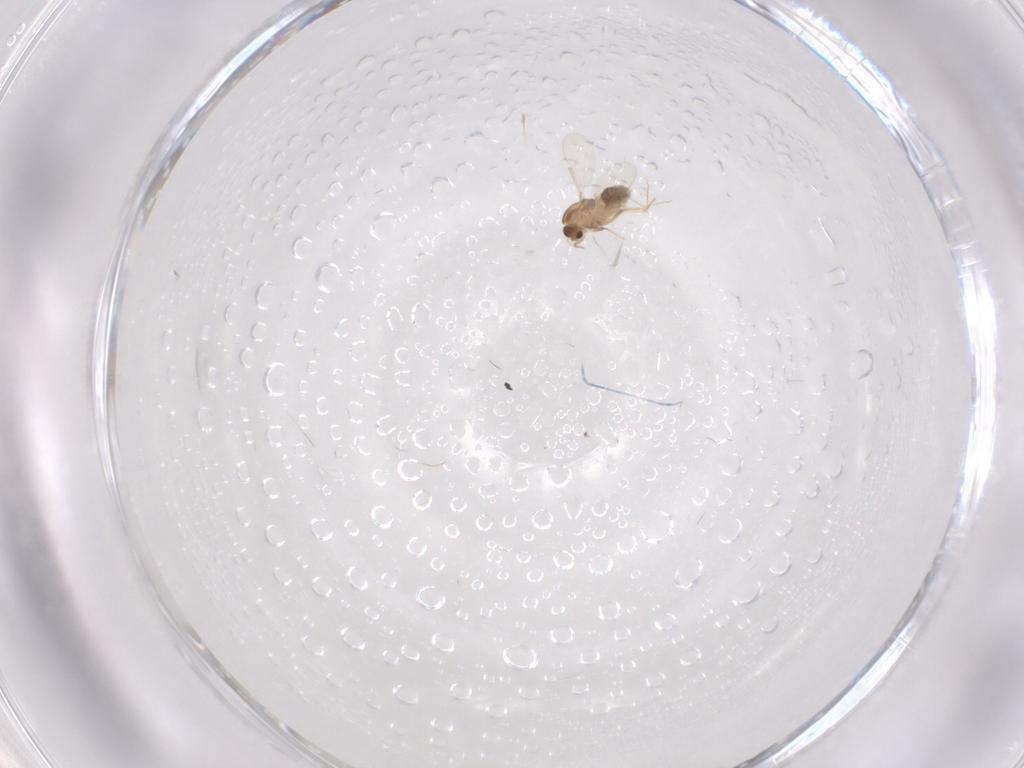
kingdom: Animalia
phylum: Arthropoda
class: Insecta
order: Diptera
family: Chironomidae
